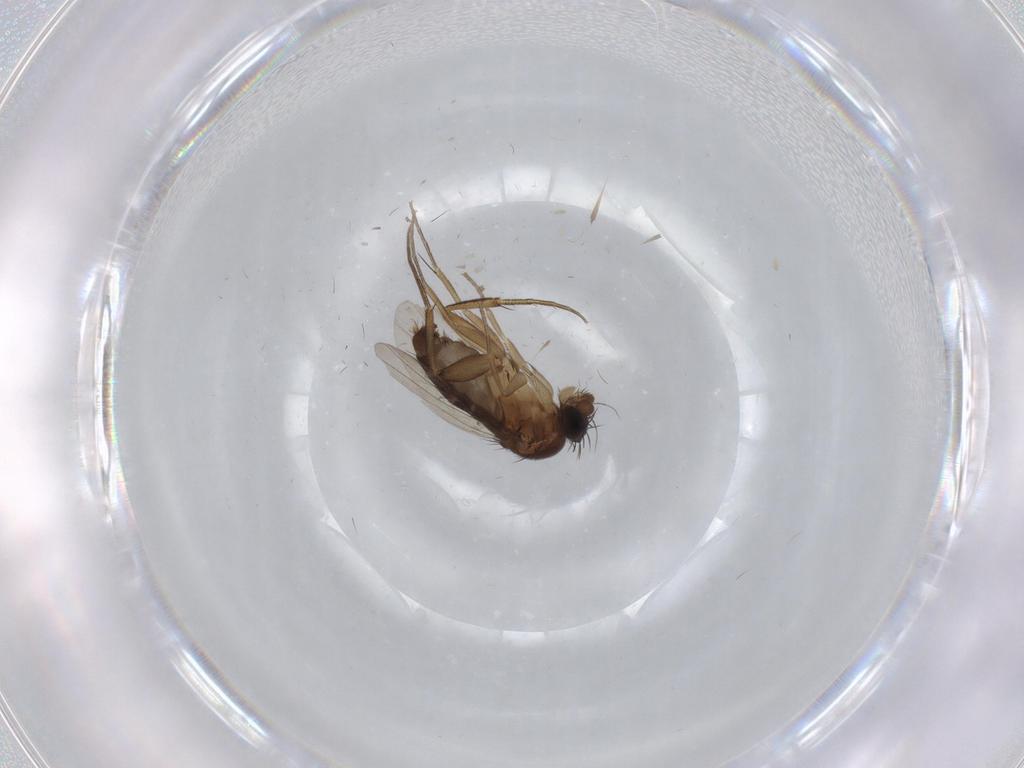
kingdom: Animalia
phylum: Arthropoda
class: Insecta
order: Diptera
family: Phoridae
